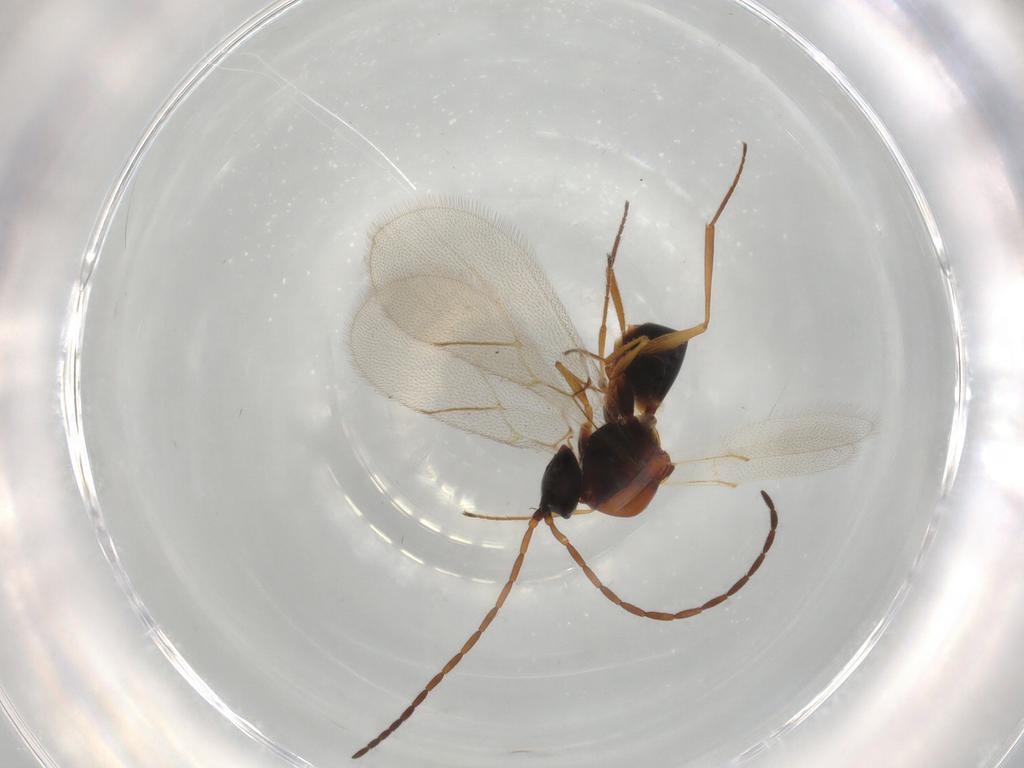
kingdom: Animalia
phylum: Arthropoda
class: Insecta
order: Hymenoptera
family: Figitidae
